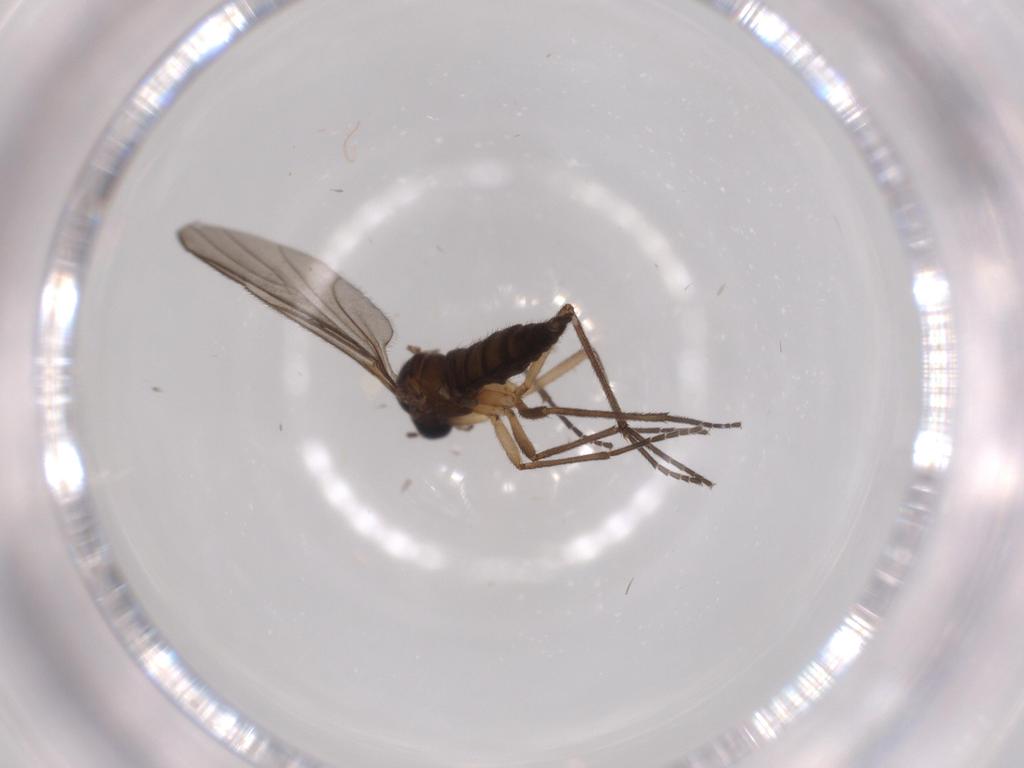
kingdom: Animalia
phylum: Arthropoda
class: Insecta
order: Diptera
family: Sciaridae
